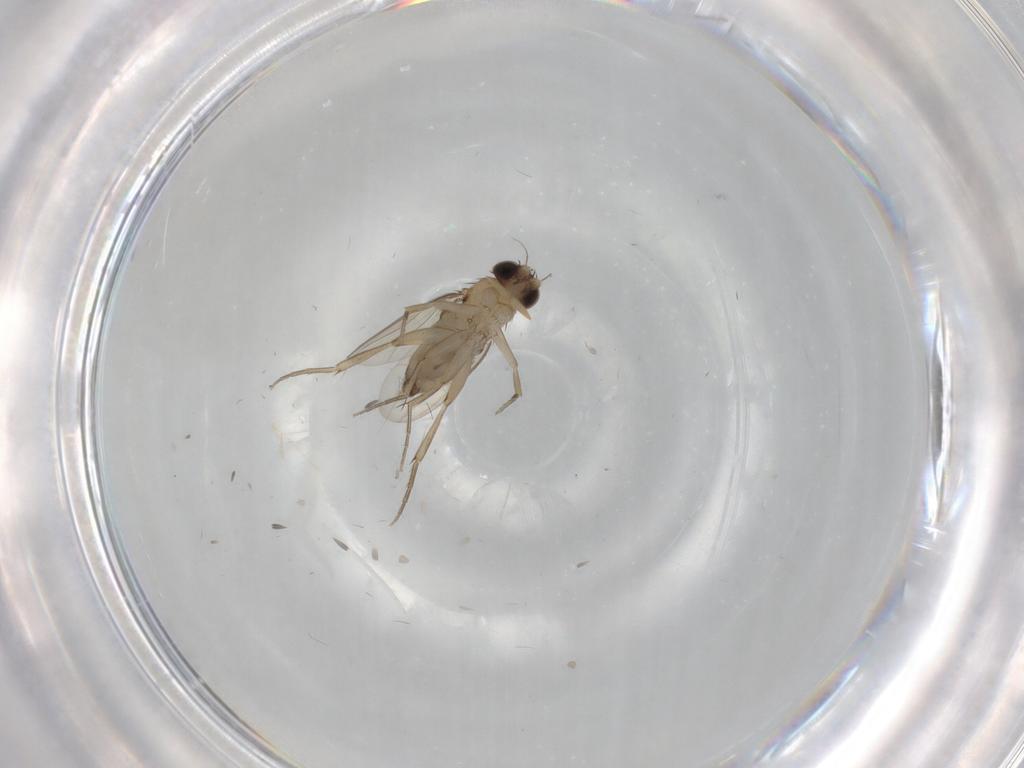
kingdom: Animalia
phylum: Arthropoda
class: Insecta
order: Diptera
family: Phoridae
